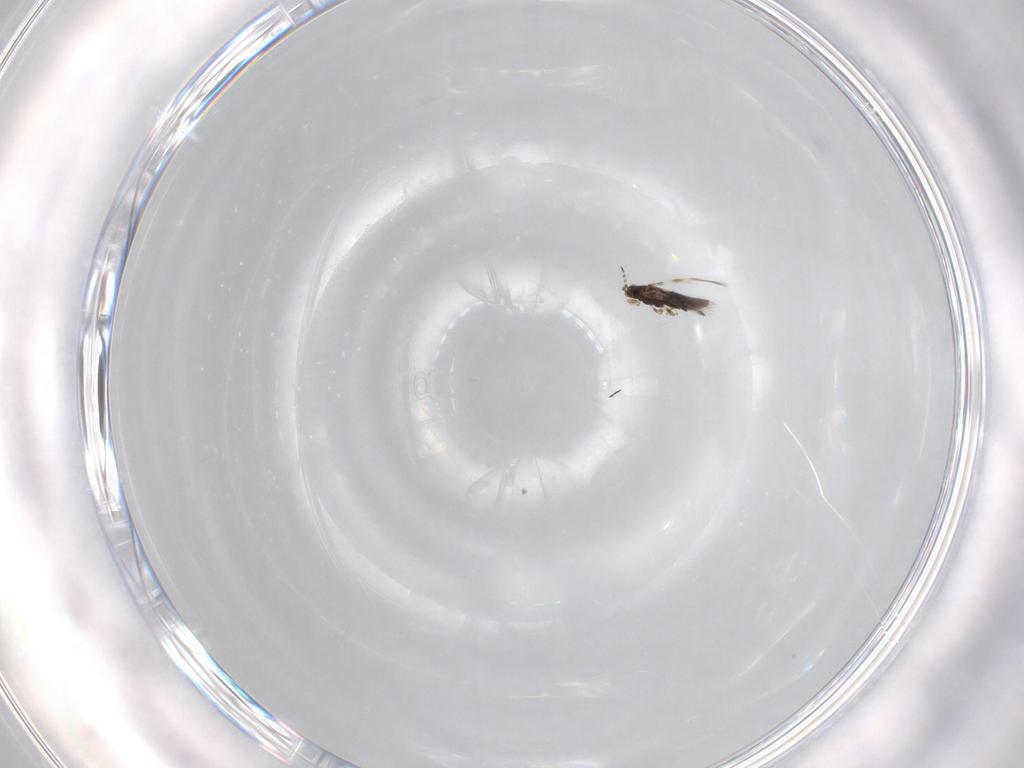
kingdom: Animalia
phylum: Arthropoda
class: Insecta
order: Thysanoptera
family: Thripidae
